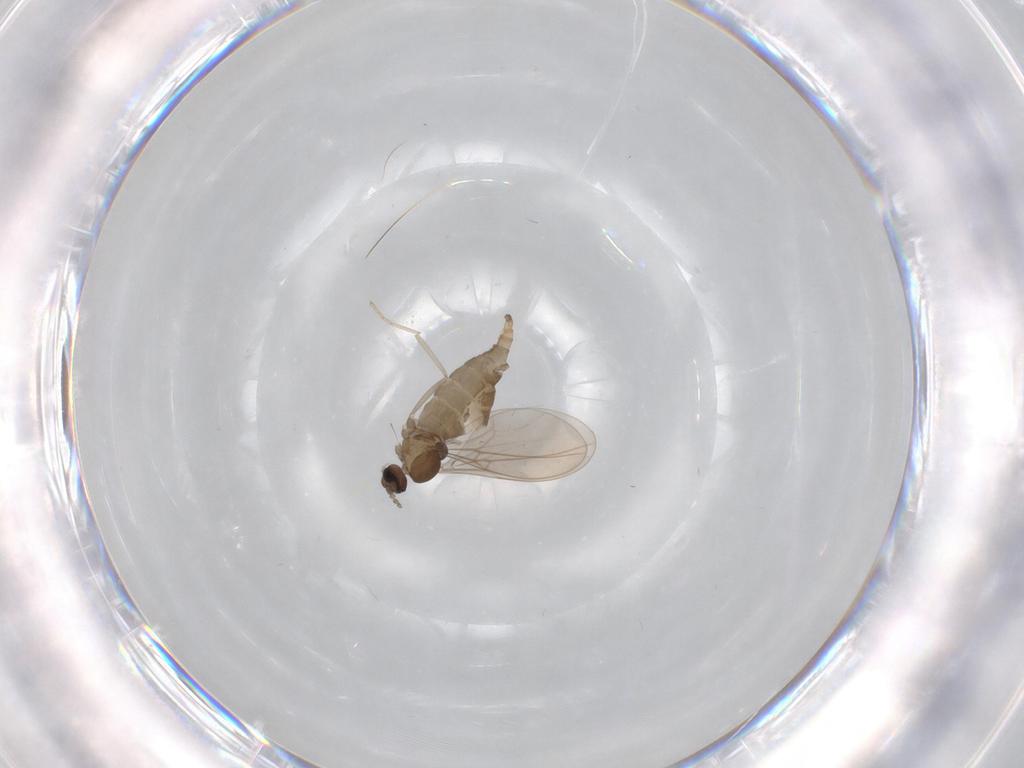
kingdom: Animalia
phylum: Arthropoda
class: Insecta
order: Diptera
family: Cecidomyiidae
